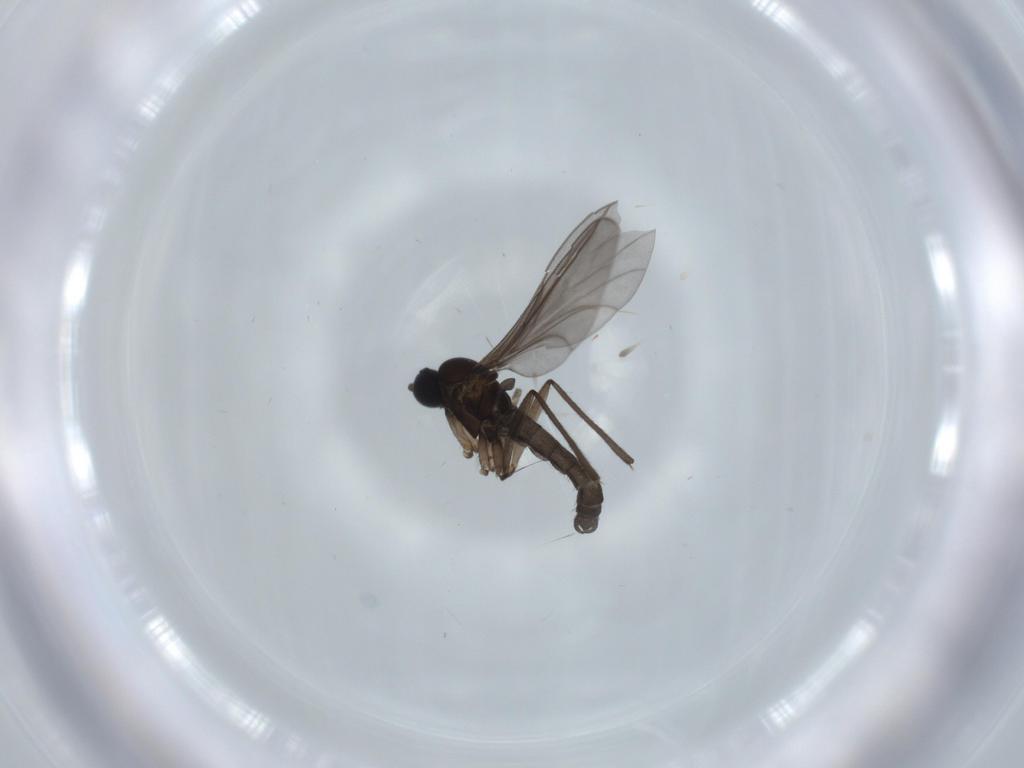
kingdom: Animalia
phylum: Arthropoda
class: Insecta
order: Diptera
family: Sciaridae
